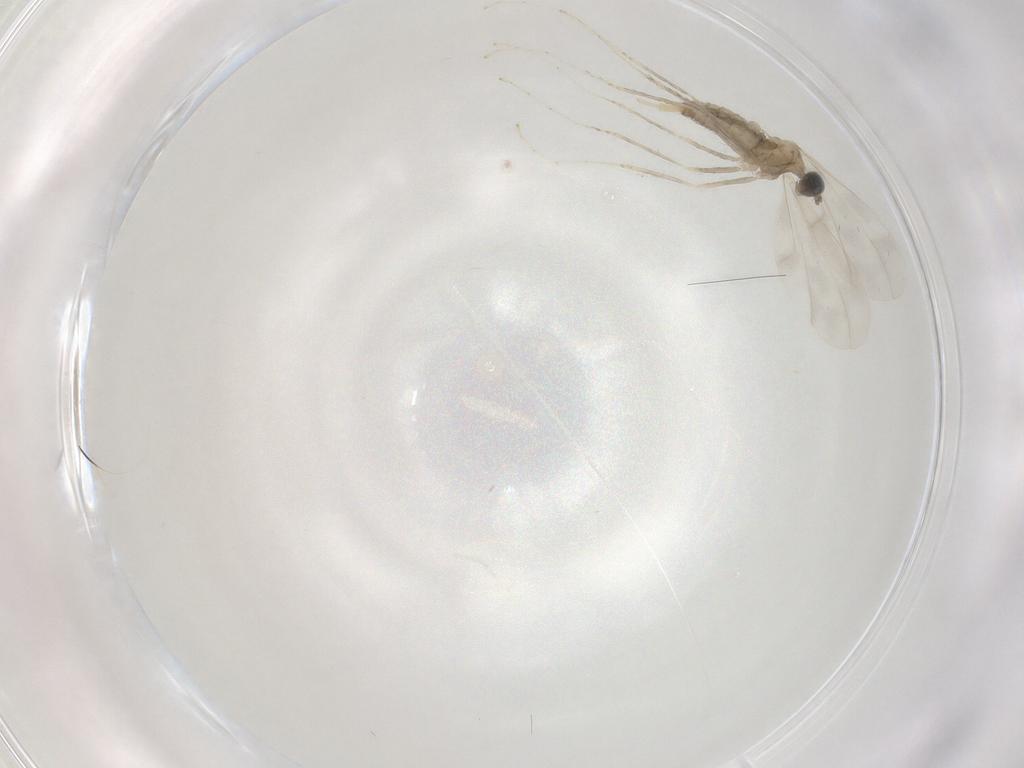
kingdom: Animalia
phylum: Arthropoda
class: Insecta
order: Diptera
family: Cecidomyiidae
